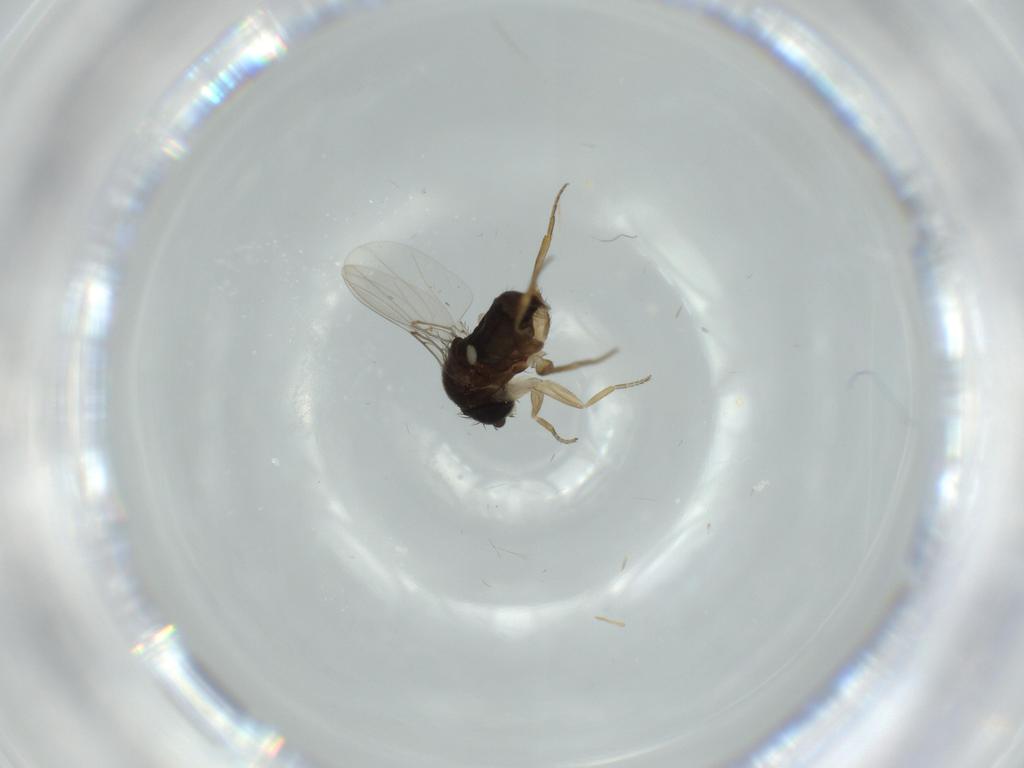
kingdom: Animalia
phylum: Arthropoda
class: Insecta
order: Diptera
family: Phoridae
